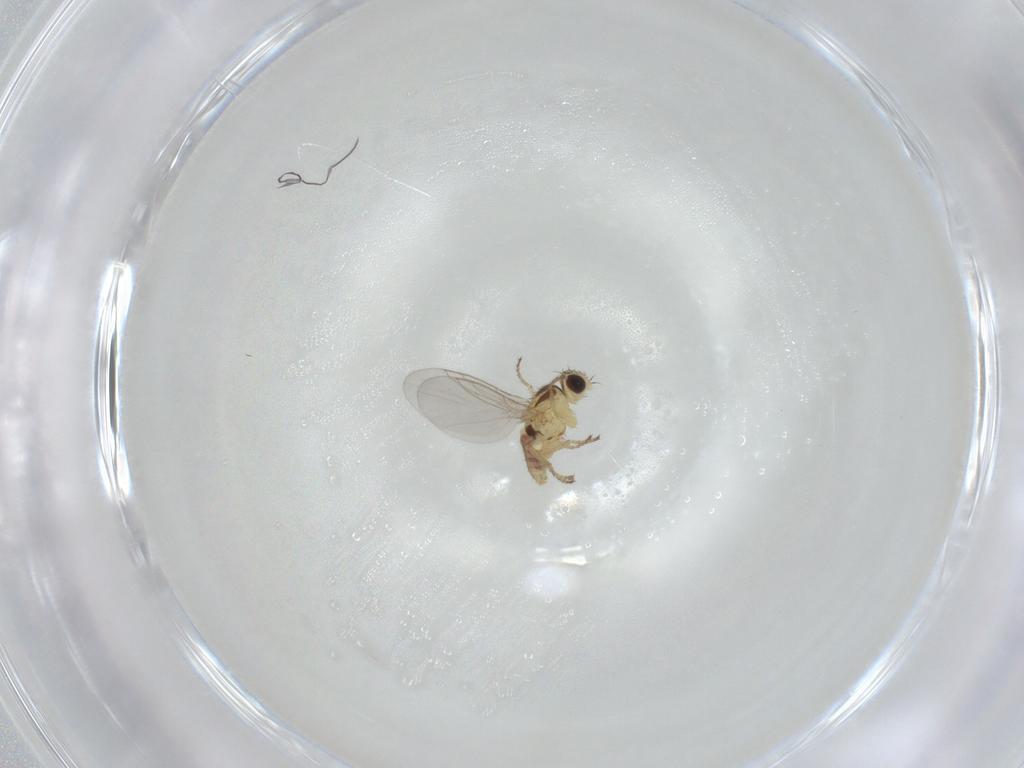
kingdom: Animalia
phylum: Arthropoda
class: Insecta
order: Diptera
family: Agromyzidae
